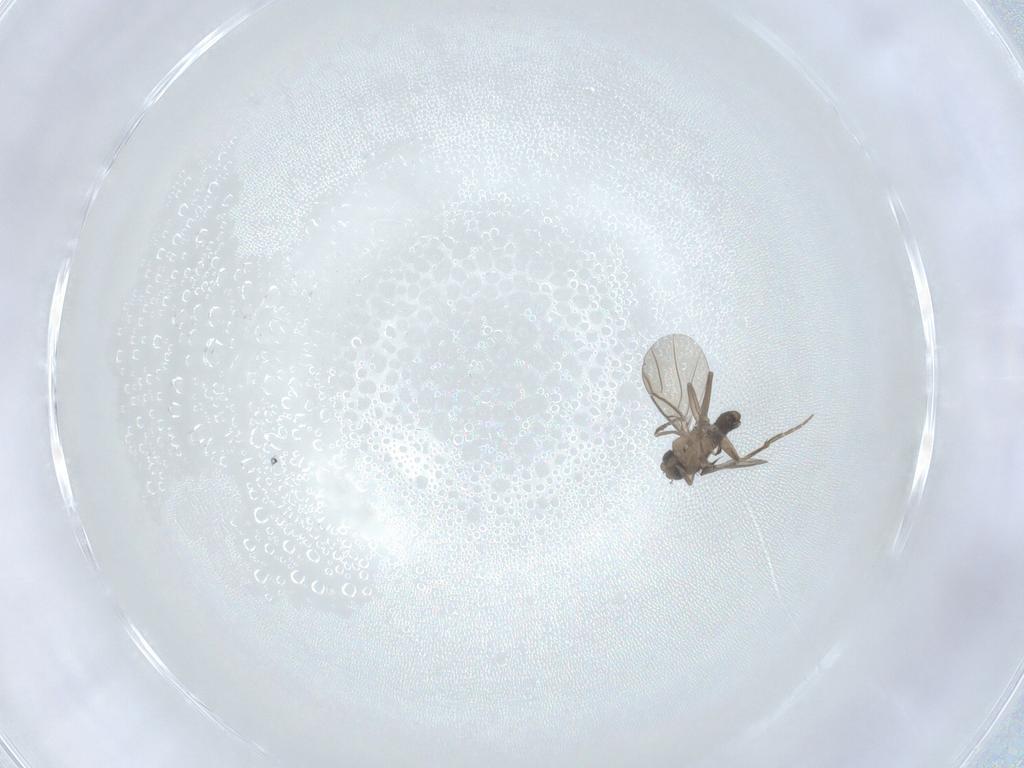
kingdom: Animalia
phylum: Arthropoda
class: Insecta
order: Diptera
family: Phoridae
